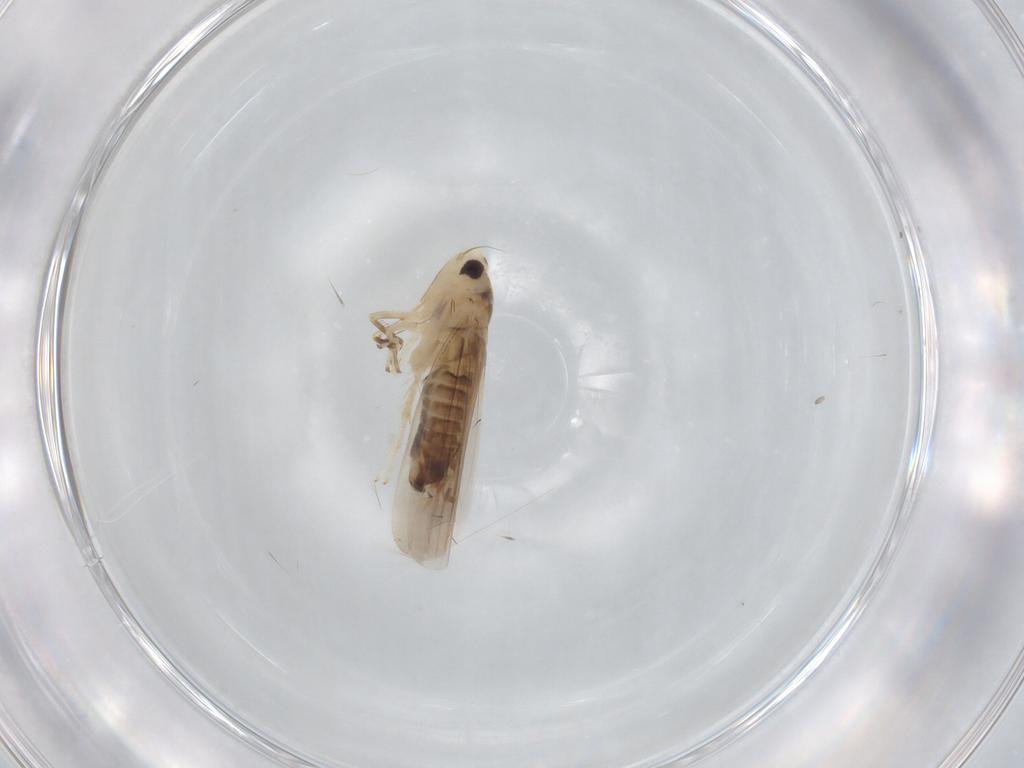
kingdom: Animalia
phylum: Arthropoda
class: Insecta
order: Hemiptera
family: Cicadellidae
